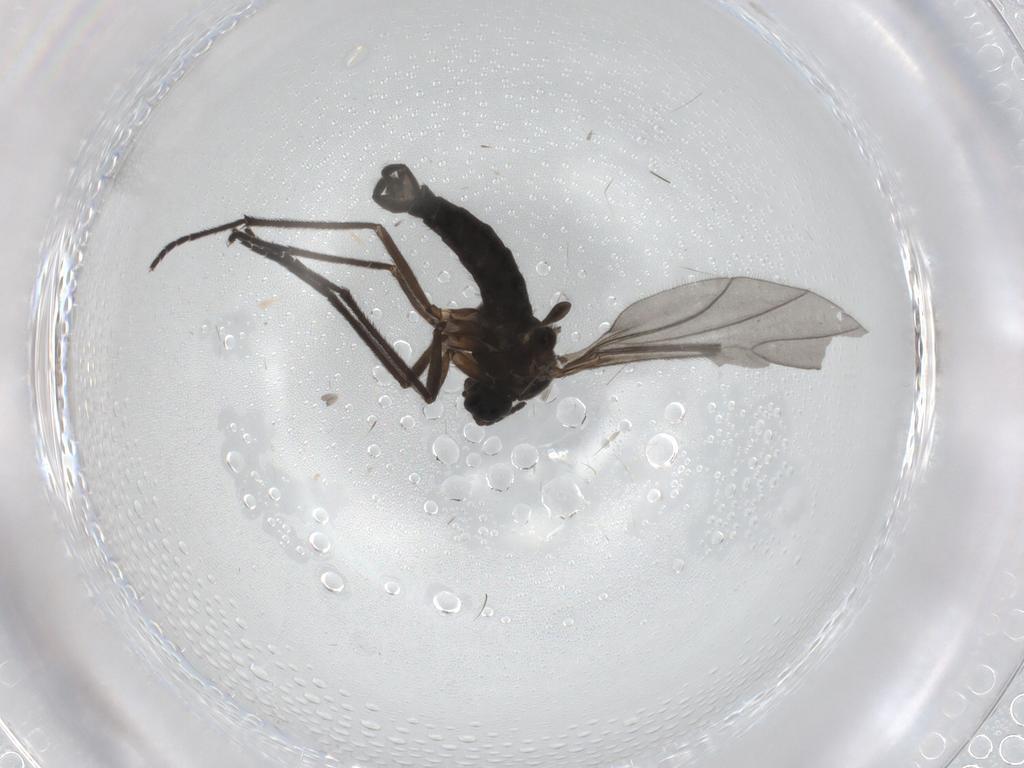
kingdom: Animalia
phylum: Arthropoda
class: Insecta
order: Diptera
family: Sciaridae
